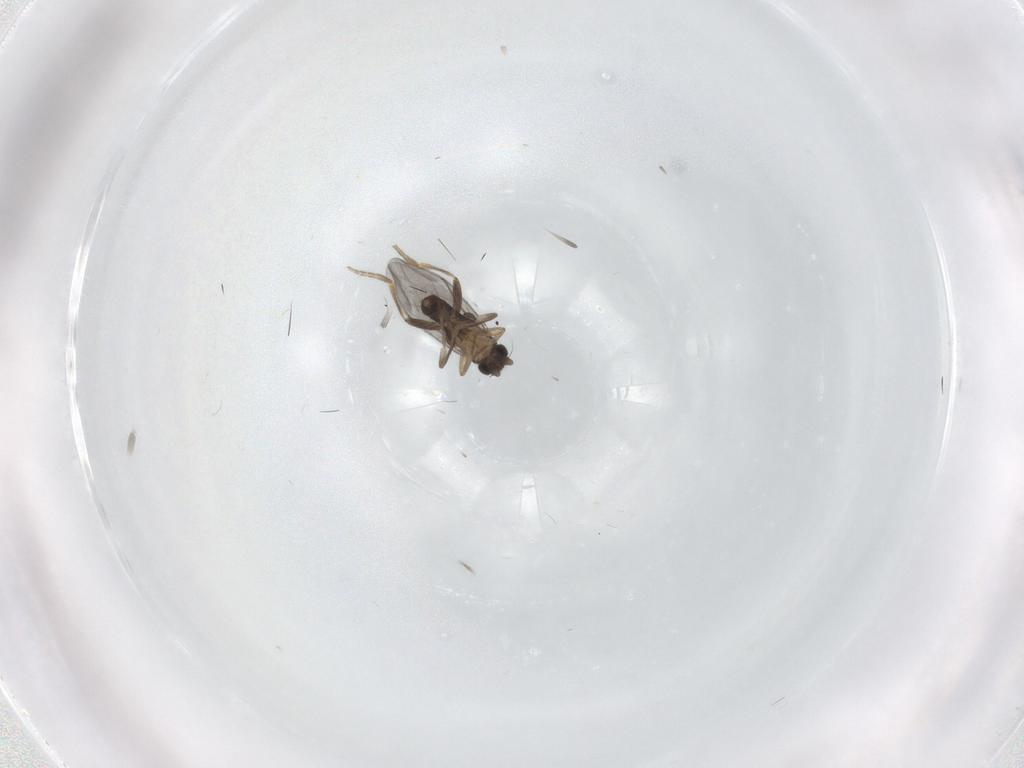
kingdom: Animalia
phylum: Arthropoda
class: Insecta
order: Diptera
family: Cecidomyiidae
